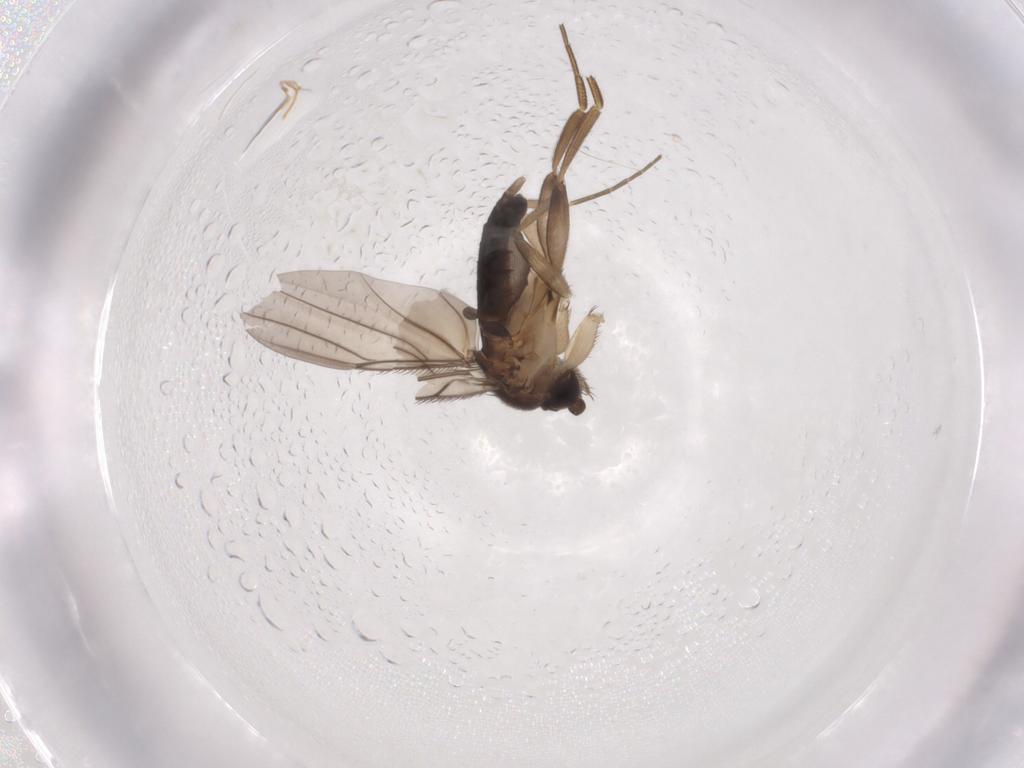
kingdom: Animalia
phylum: Arthropoda
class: Insecta
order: Diptera
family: Phoridae
